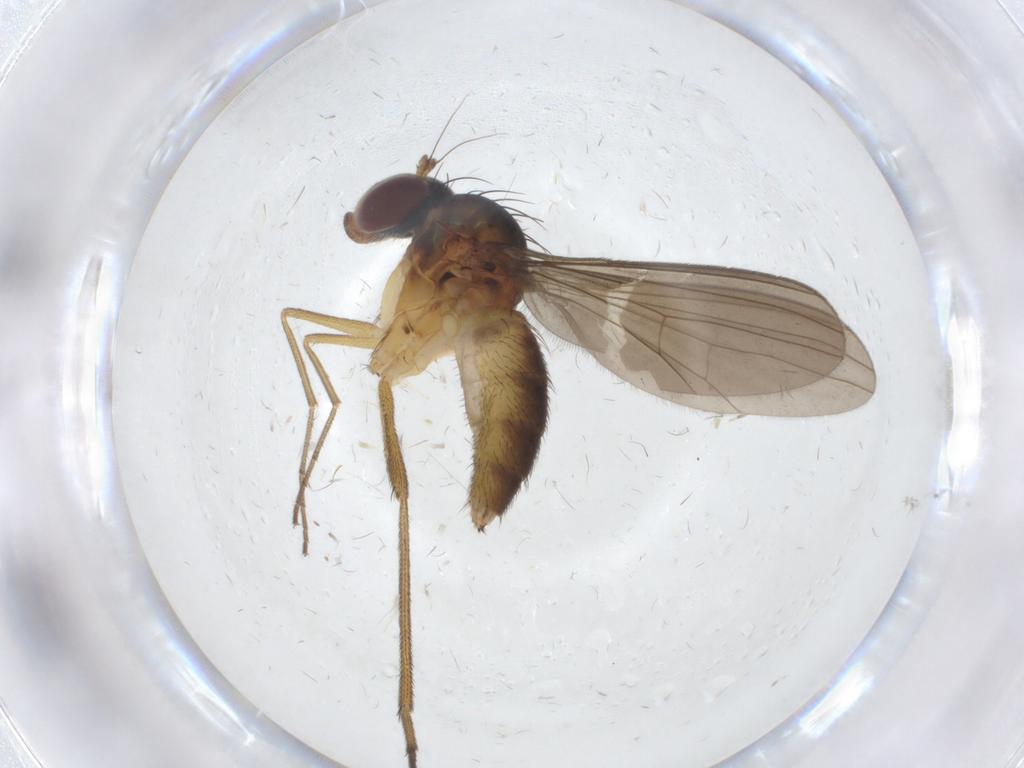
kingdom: Animalia
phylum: Arthropoda
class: Insecta
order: Diptera
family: Dolichopodidae
